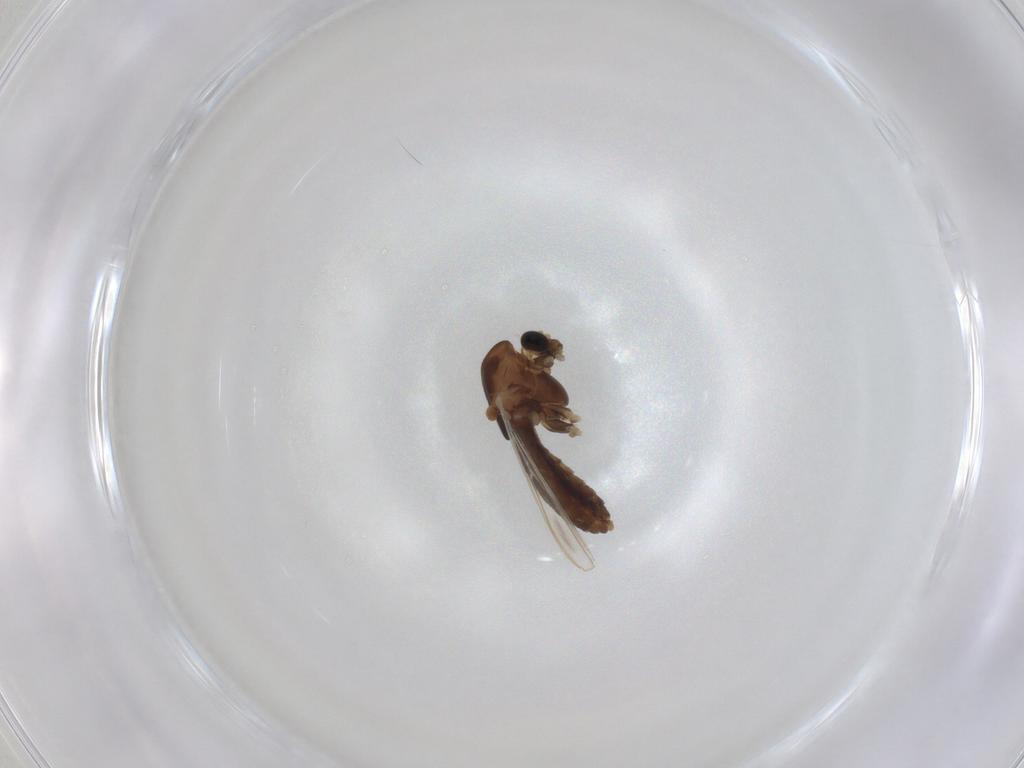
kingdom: Animalia
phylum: Arthropoda
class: Insecta
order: Diptera
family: Chironomidae
